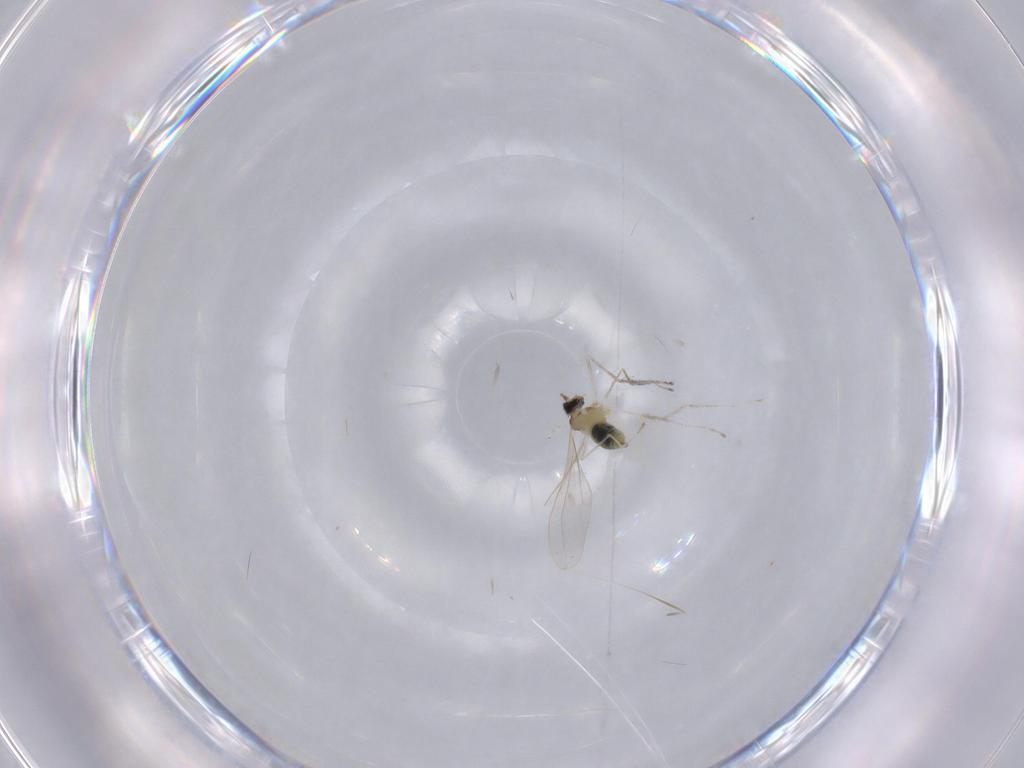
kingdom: Animalia
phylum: Arthropoda
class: Insecta
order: Diptera
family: Cecidomyiidae
